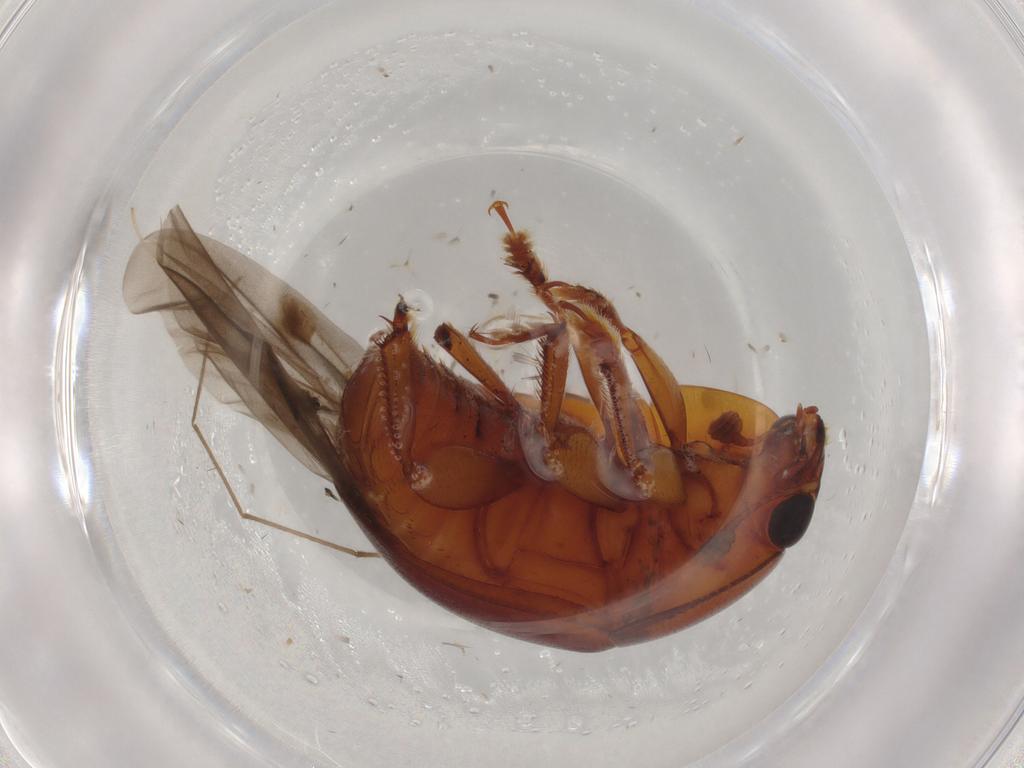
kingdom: Animalia
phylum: Arthropoda
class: Insecta
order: Coleoptera
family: Nitidulidae
